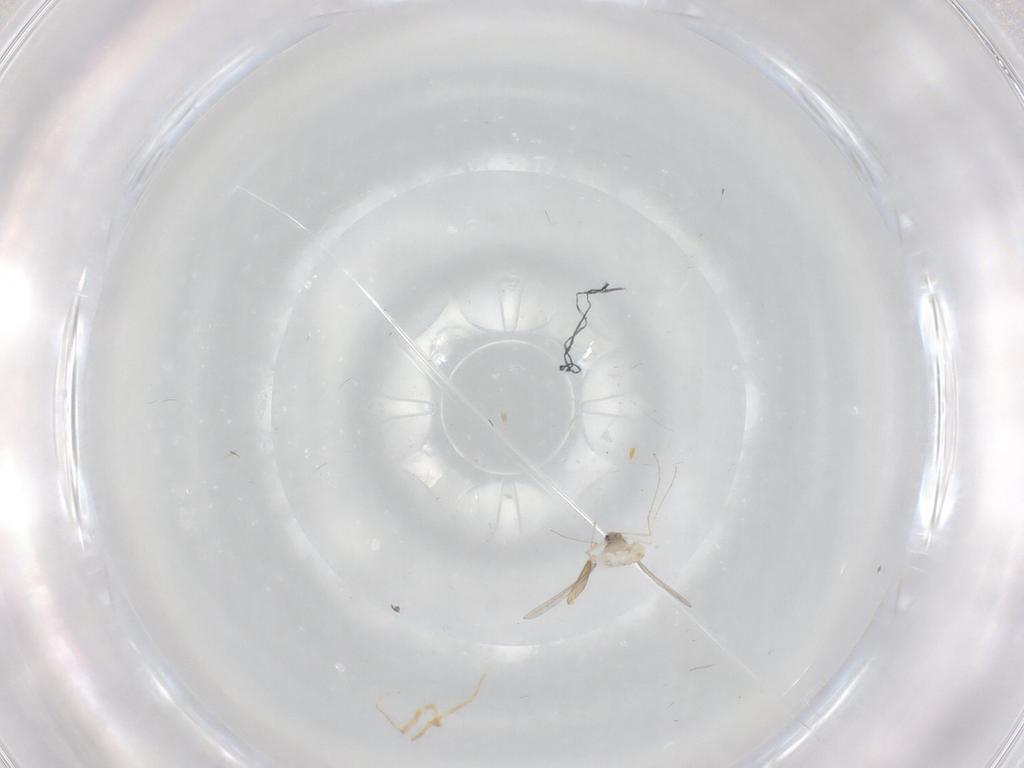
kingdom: Animalia
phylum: Arthropoda
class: Insecta
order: Diptera
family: Cecidomyiidae
